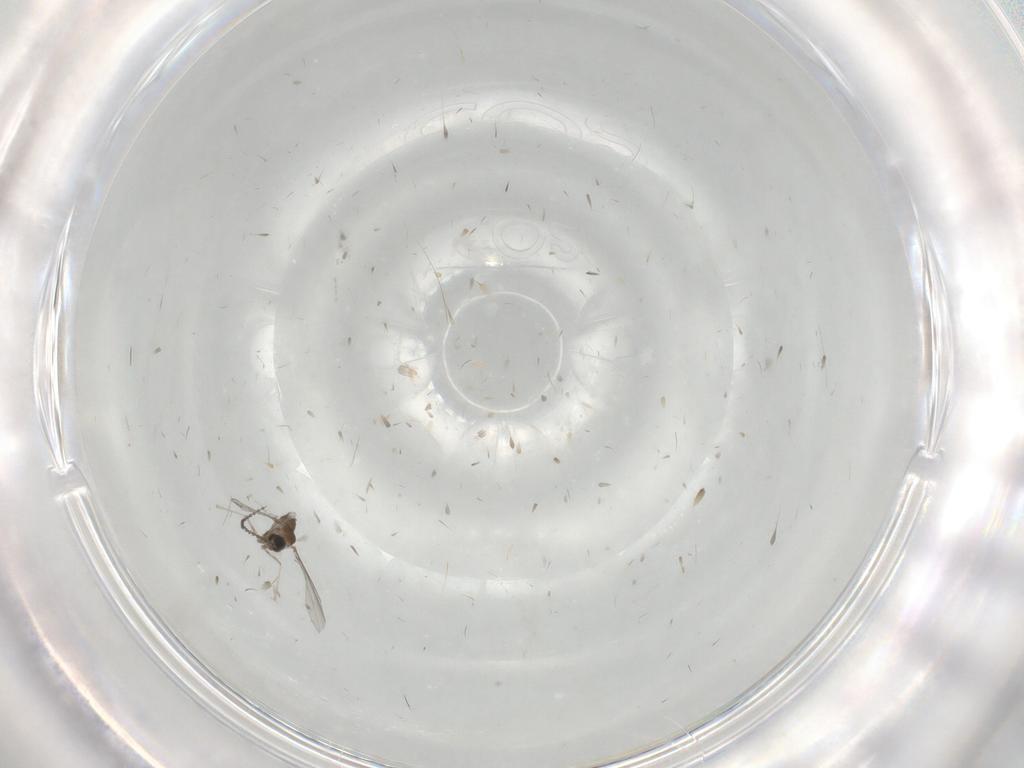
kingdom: Animalia
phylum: Arthropoda
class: Insecta
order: Diptera
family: Cecidomyiidae
